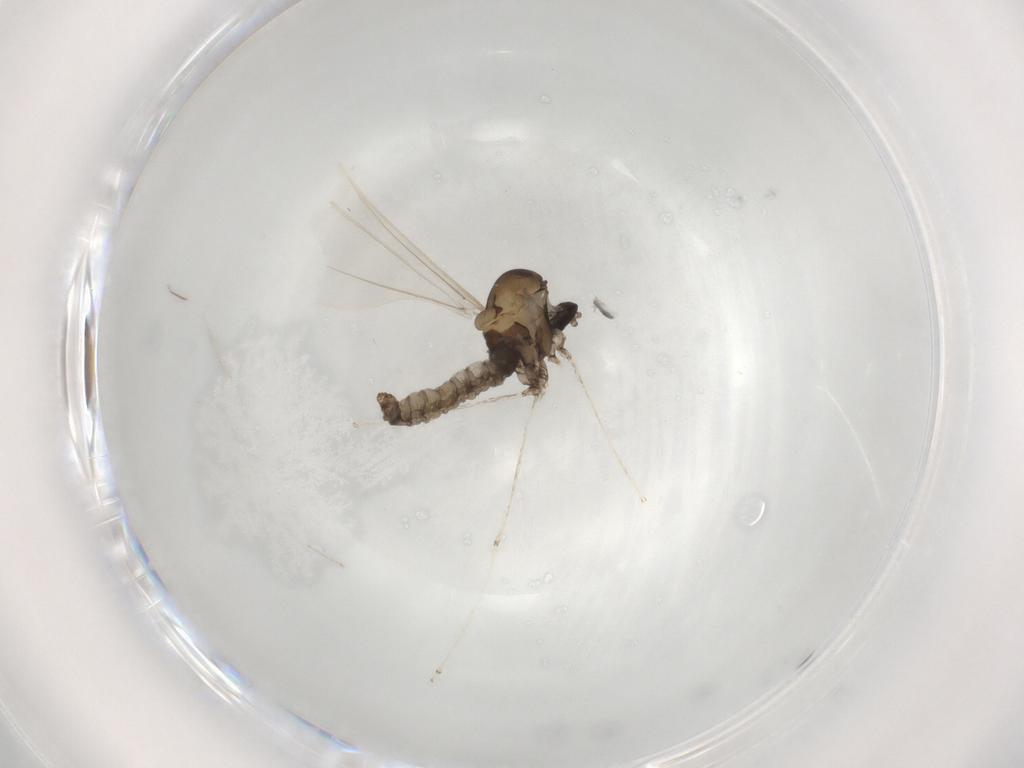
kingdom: Animalia
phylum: Arthropoda
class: Insecta
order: Diptera
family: Cecidomyiidae
